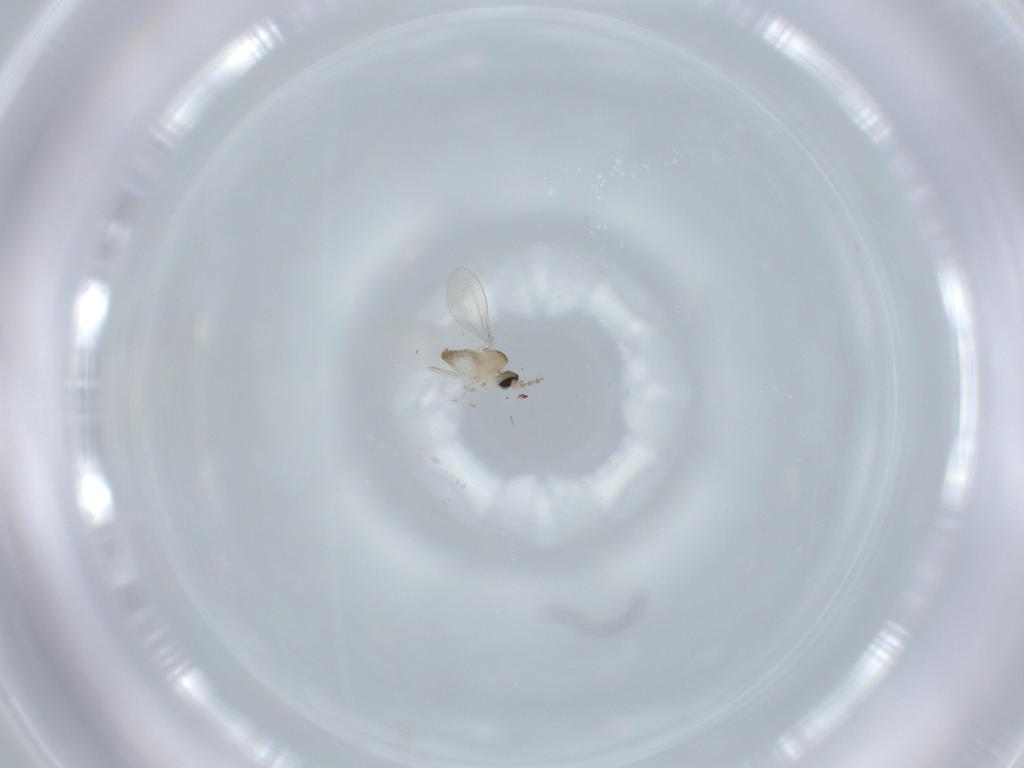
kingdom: Animalia
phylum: Arthropoda
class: Insecta
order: Diptera
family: Cecidomyiidae
